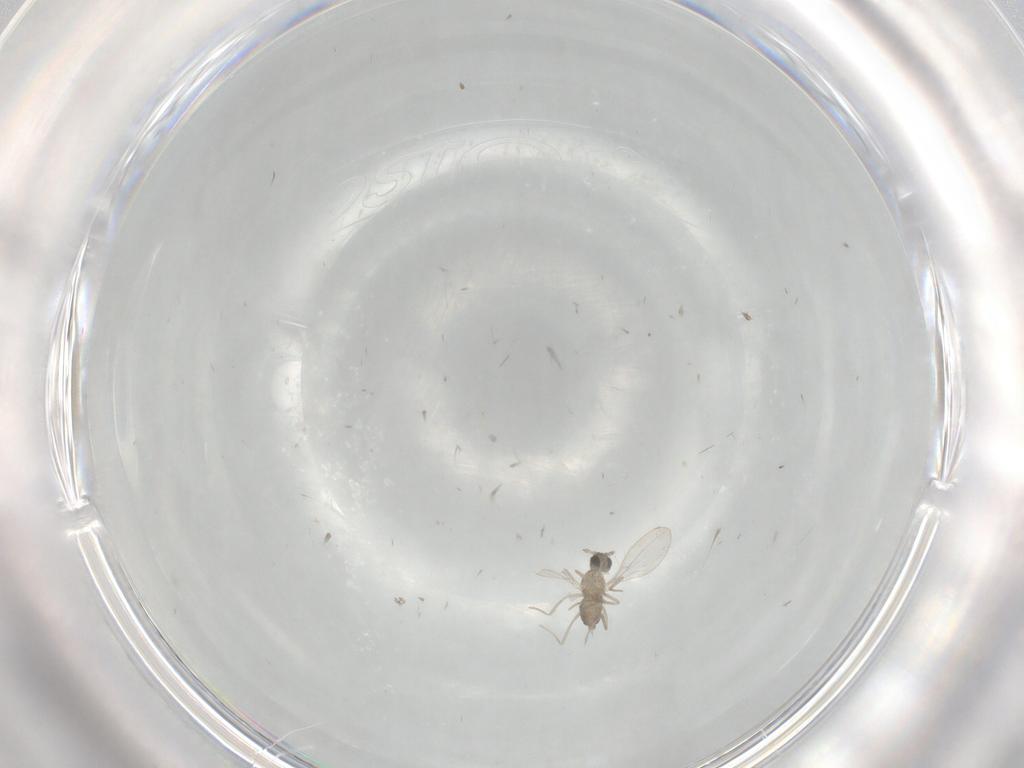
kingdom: Animalia
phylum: Arthropoda
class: Insecta
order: Diptera
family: Cecidomyiidae
